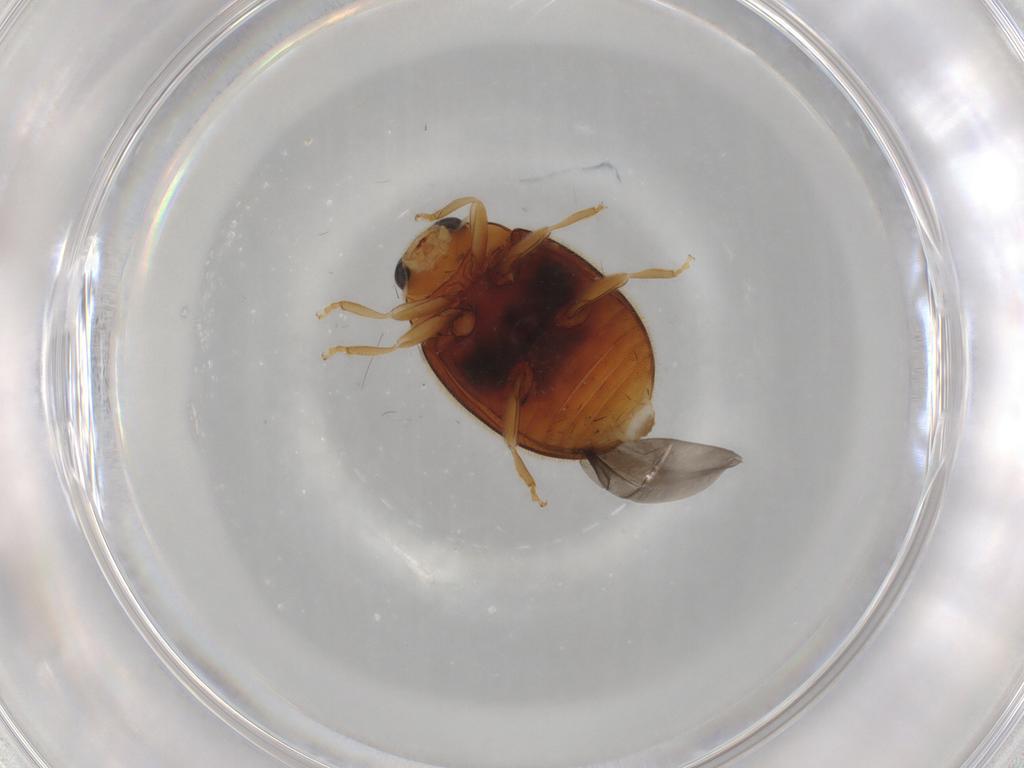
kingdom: Animalia
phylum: Arthropoda
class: Insecta
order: Coleoptera
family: Coccinellidae
